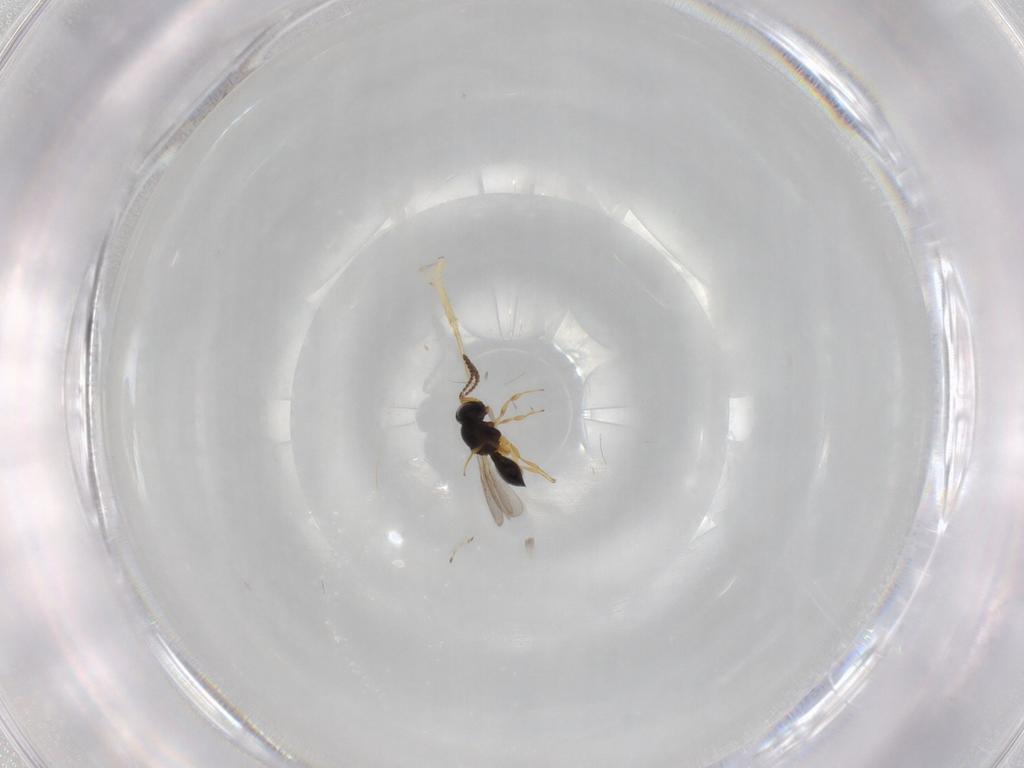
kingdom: Animalia
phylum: Arthropoda
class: Insecta
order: Hymenoptera
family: Scelionidae
